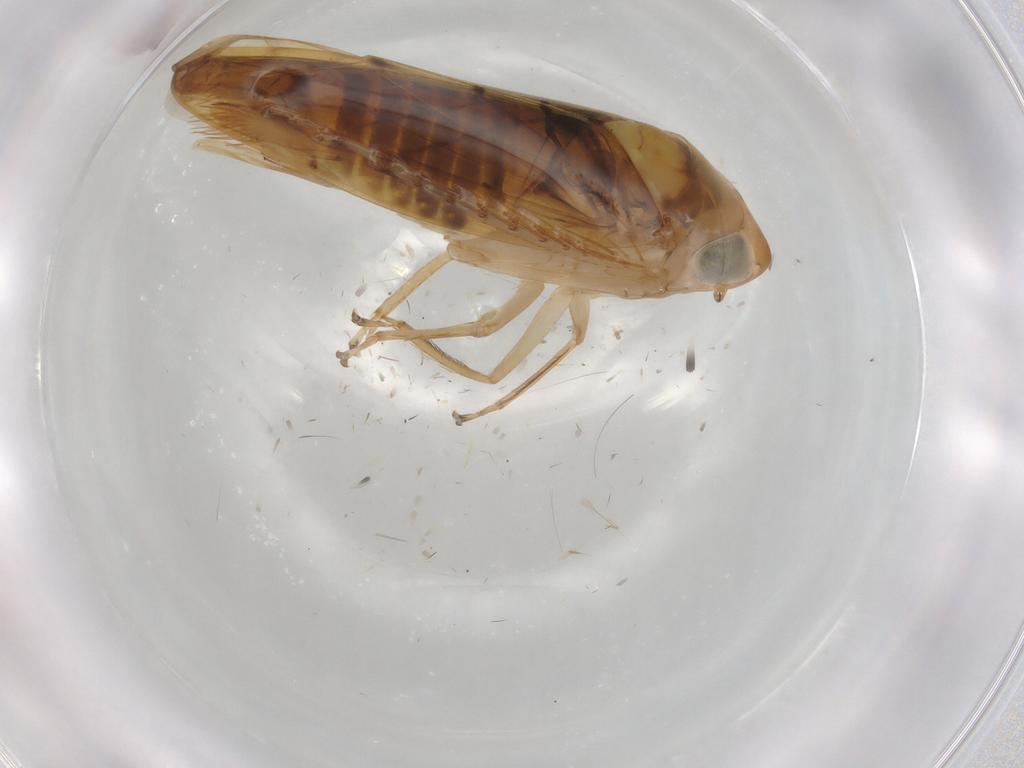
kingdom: Animalia
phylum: Arthropoda
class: Insecta
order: Hemiptera
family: Cicadellidae
